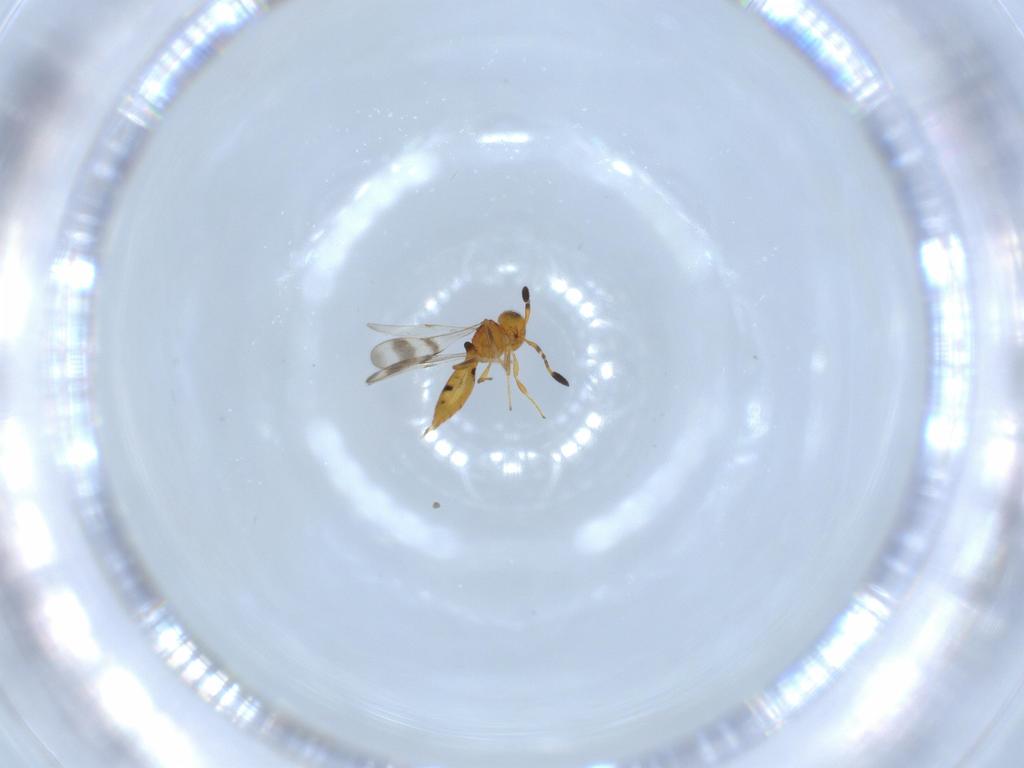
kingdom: Animalia
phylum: Arthropoda
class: Insecta
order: Hymenoptera
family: Scelionidae
